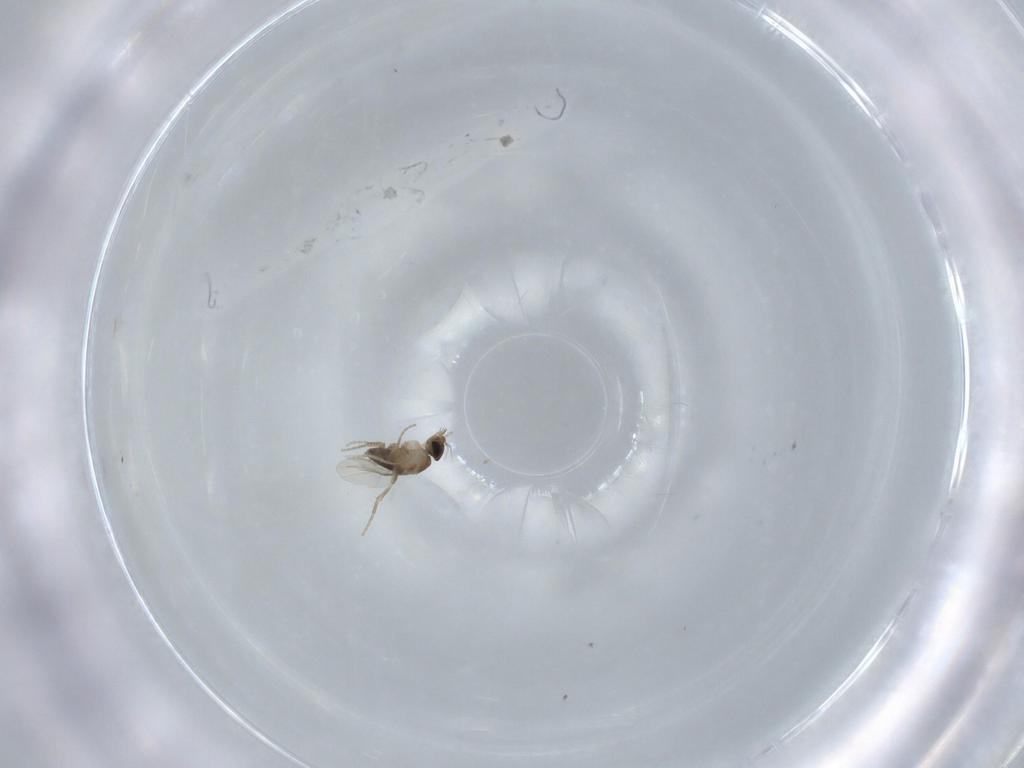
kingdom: Animalia
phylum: Arthropoda
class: Insecta
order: Diptera
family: Phoridae
